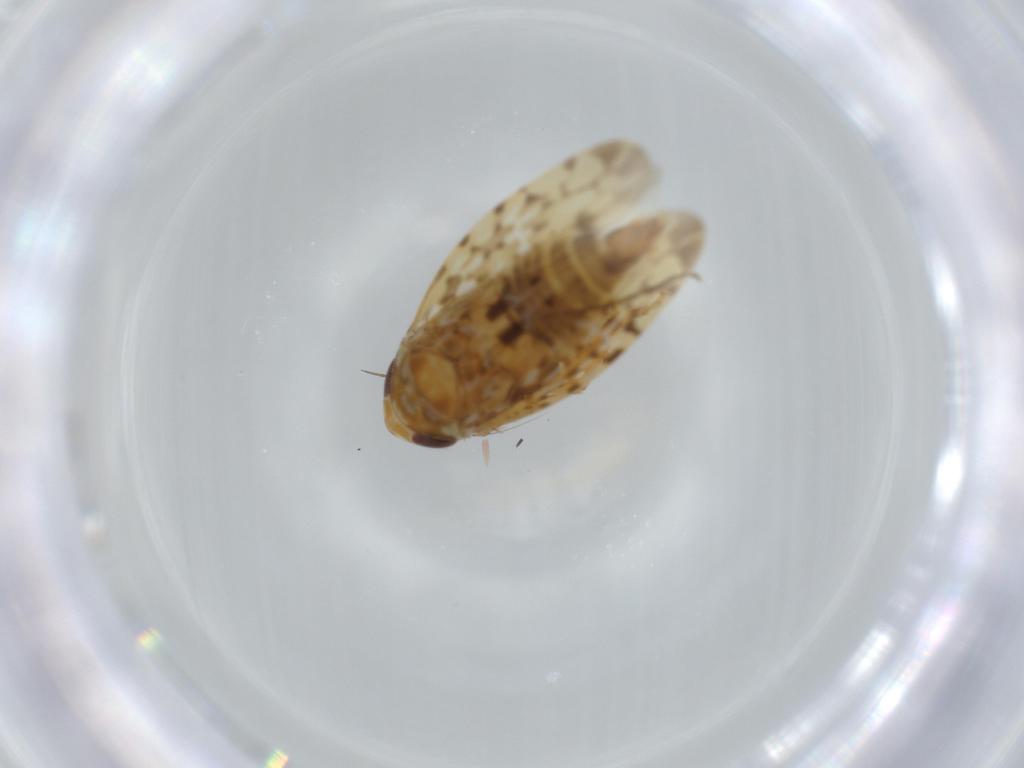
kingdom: Animalia
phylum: Arthropoda
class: Insecta
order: Hemiptera
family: Cicadellidae
